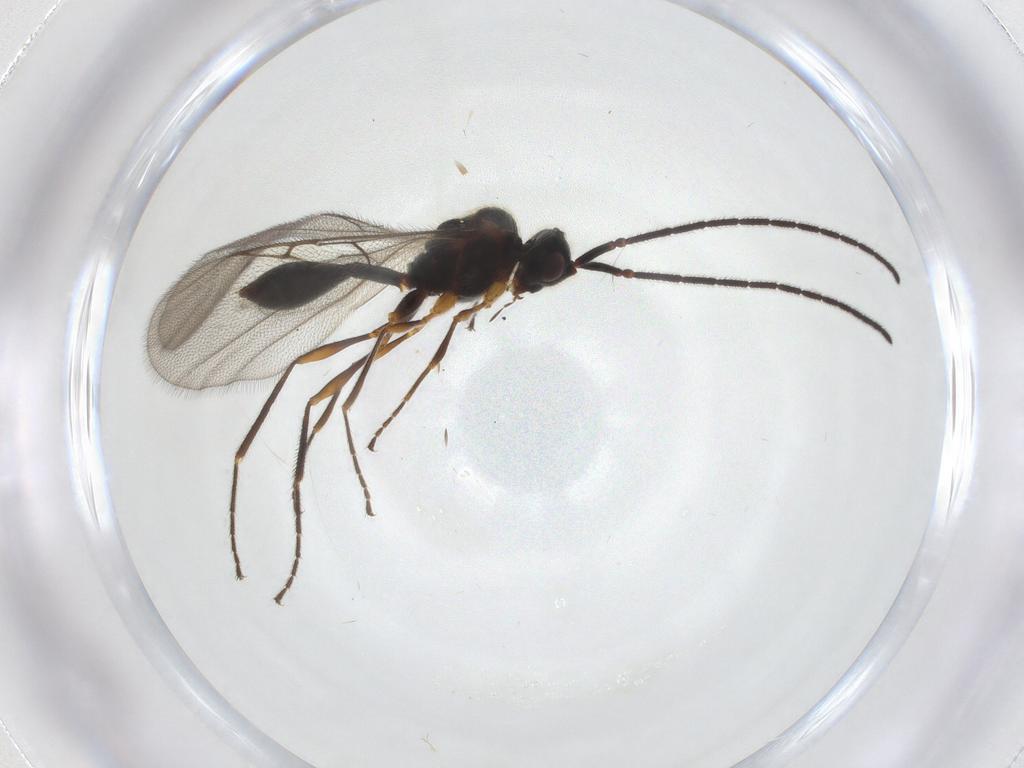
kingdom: Animalia
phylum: Arthropoda
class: Insecta
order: Hymenoptera
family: Diapriidae
